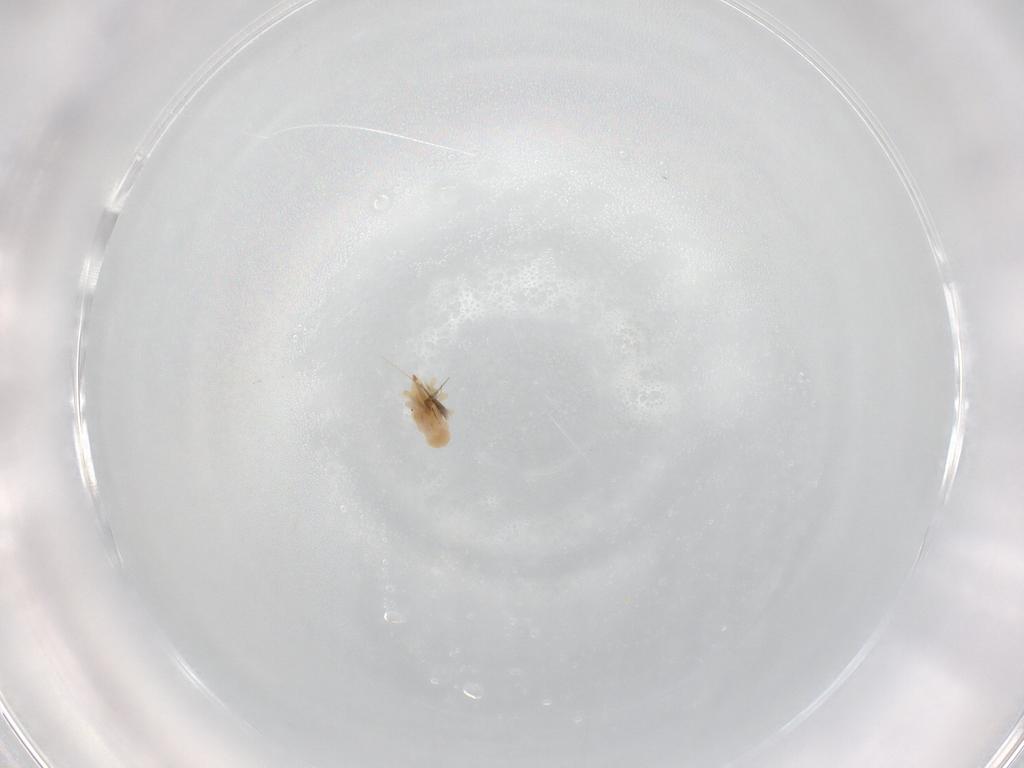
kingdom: Animalia
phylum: Arthropoda
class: Arachnida
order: Trombidiformes
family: Bdellidae
